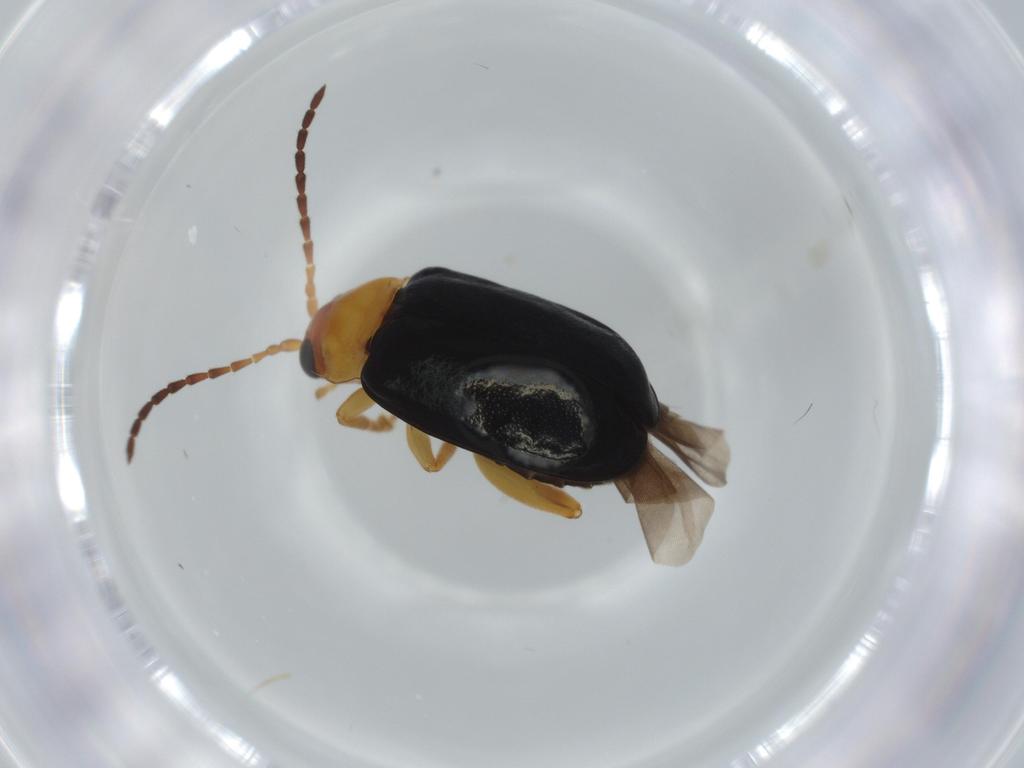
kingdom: Animalia
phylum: Arthropoda
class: Insecta
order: Coleoptera
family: Chrysomelidae
